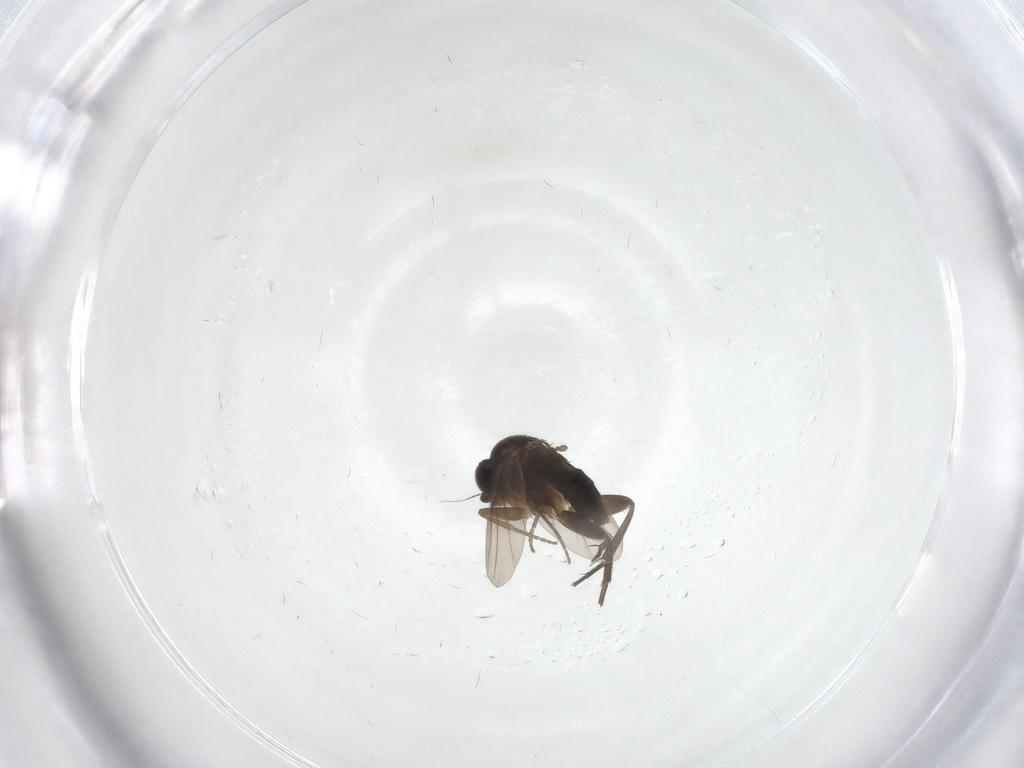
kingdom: Animalia
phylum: Arthropoda
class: Insecta
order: Diptera
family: Phoridae
